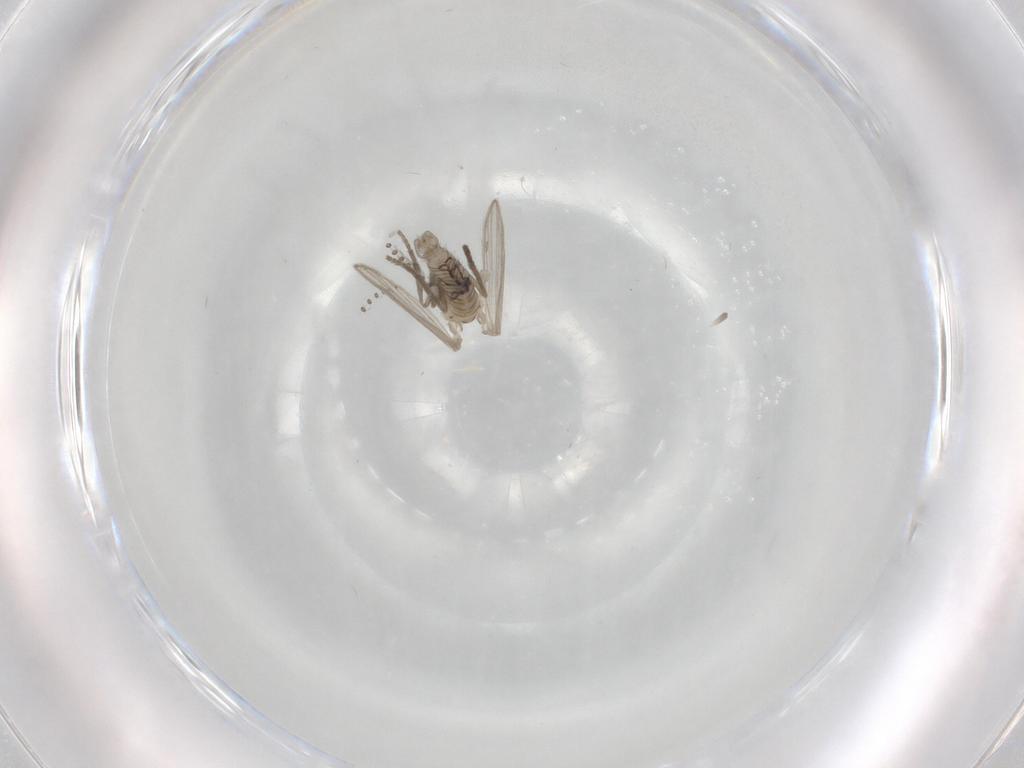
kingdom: Animalia
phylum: Arthropoda
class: Insecta
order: Diptera
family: Psychodidae
